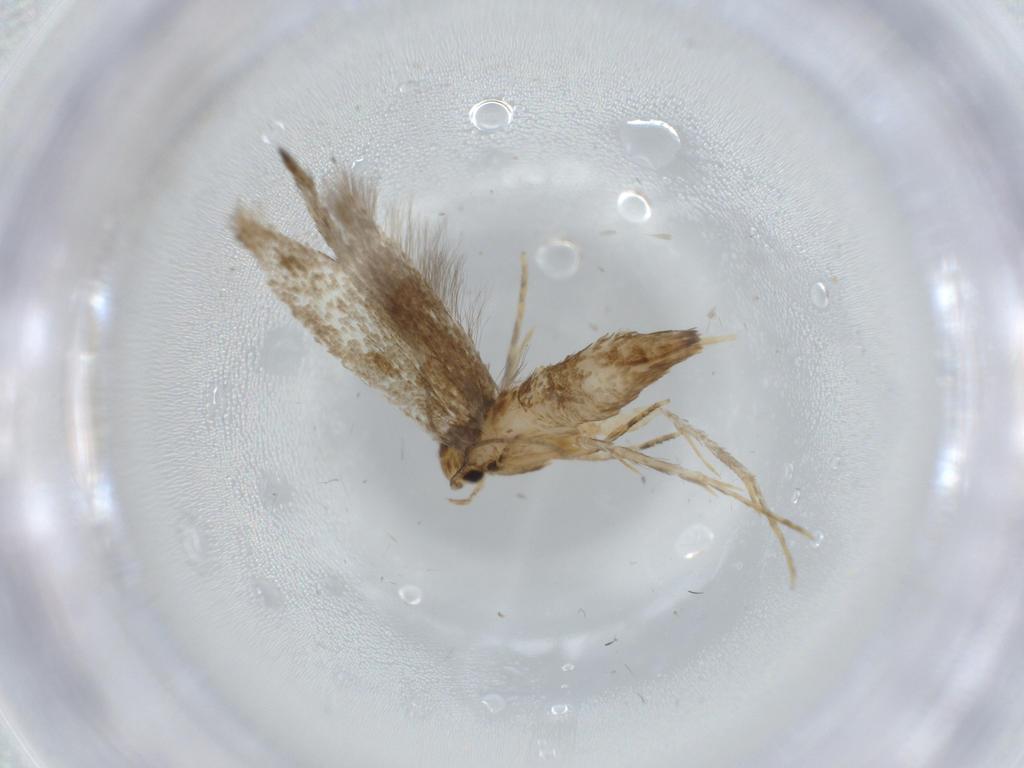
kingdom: Animalia
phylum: Arthropoda
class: Insecta
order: Lepidoptera
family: Tineidae
